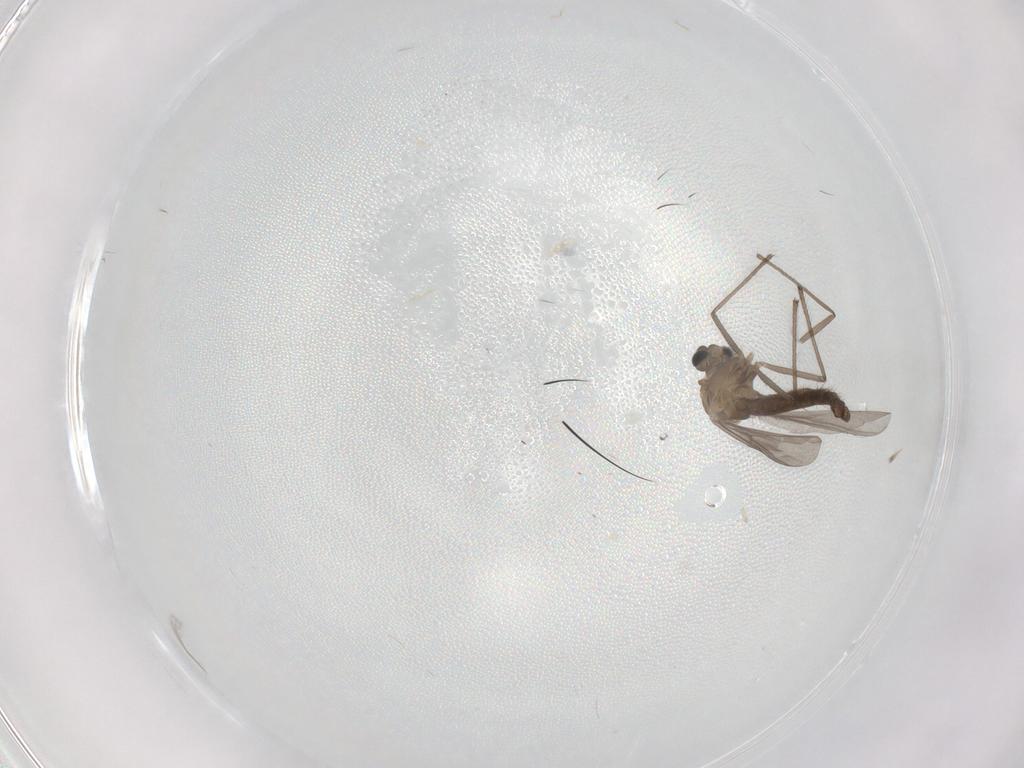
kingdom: Animalia
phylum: Arthropoda
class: Insecta
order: Diptera
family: Chironomidae
